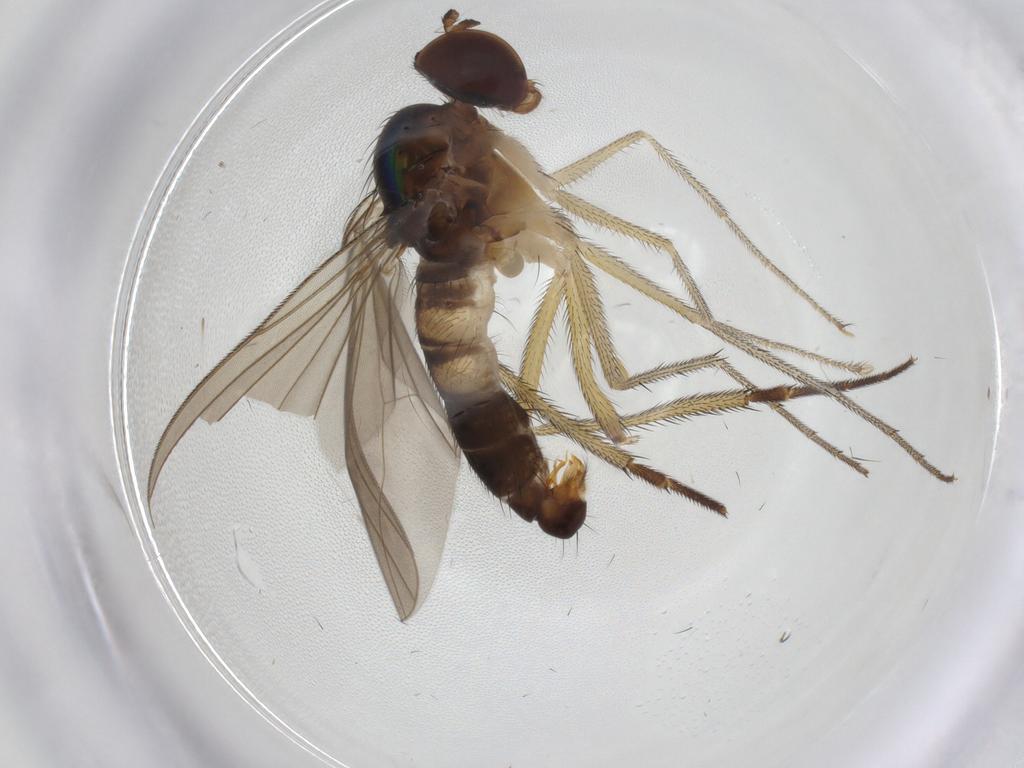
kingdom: Animalia
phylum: Arthropoda
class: Insecta
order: Diptera
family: Dolichopodidae
